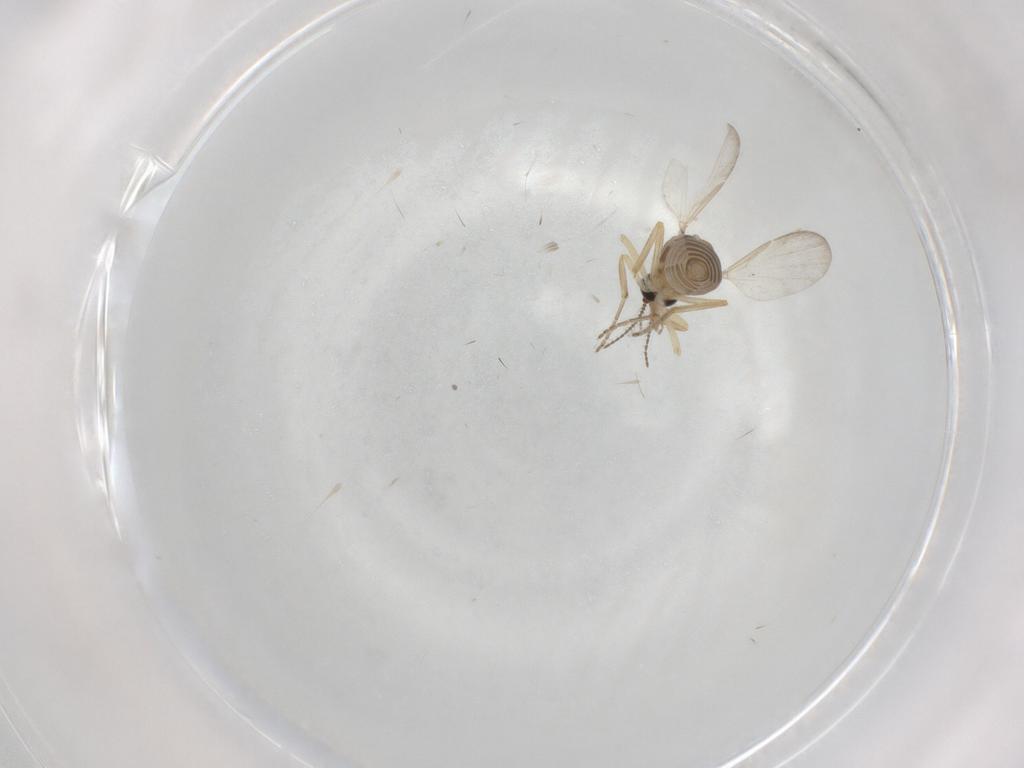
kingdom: Animalia
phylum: Arthropoda
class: Insecta
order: Diptera
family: Ceratopogonidae
